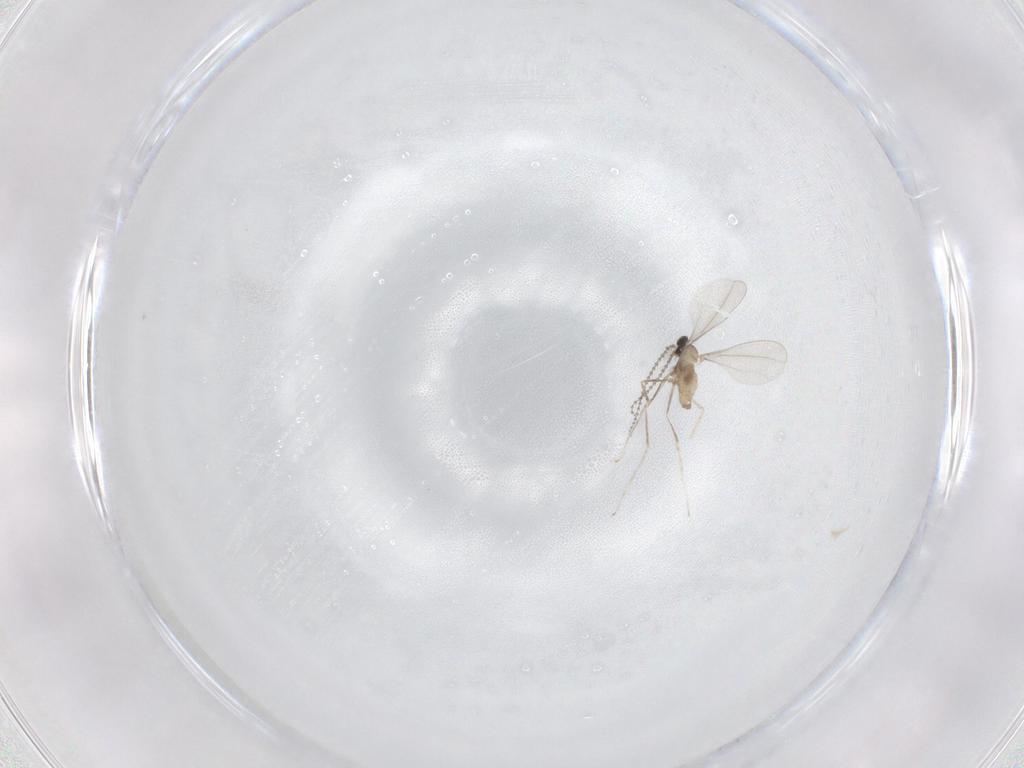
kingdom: Animalia
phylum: Arthropoda
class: Insecta
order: Diptera
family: Cecidomyiidae
